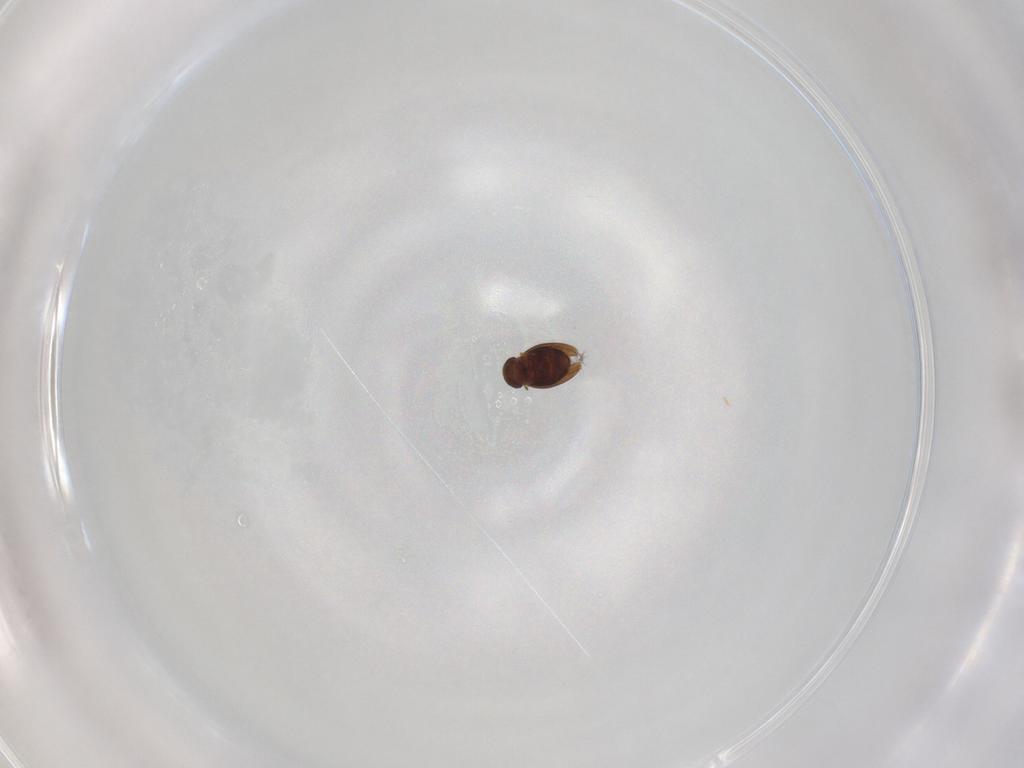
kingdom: Animalia
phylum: Arthropoda
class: Insecta
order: Coleoptera
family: Ptiliidae
